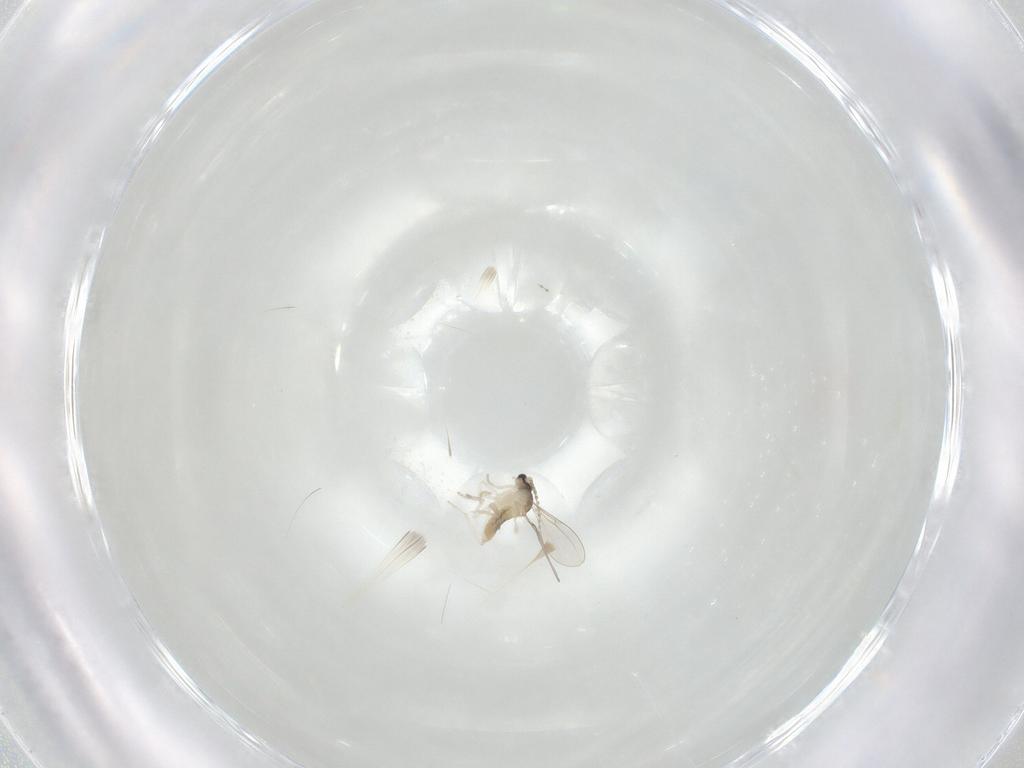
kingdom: Animalia
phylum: Arthropoda
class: Insecta
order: Diptera
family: Cecidomyiidae
